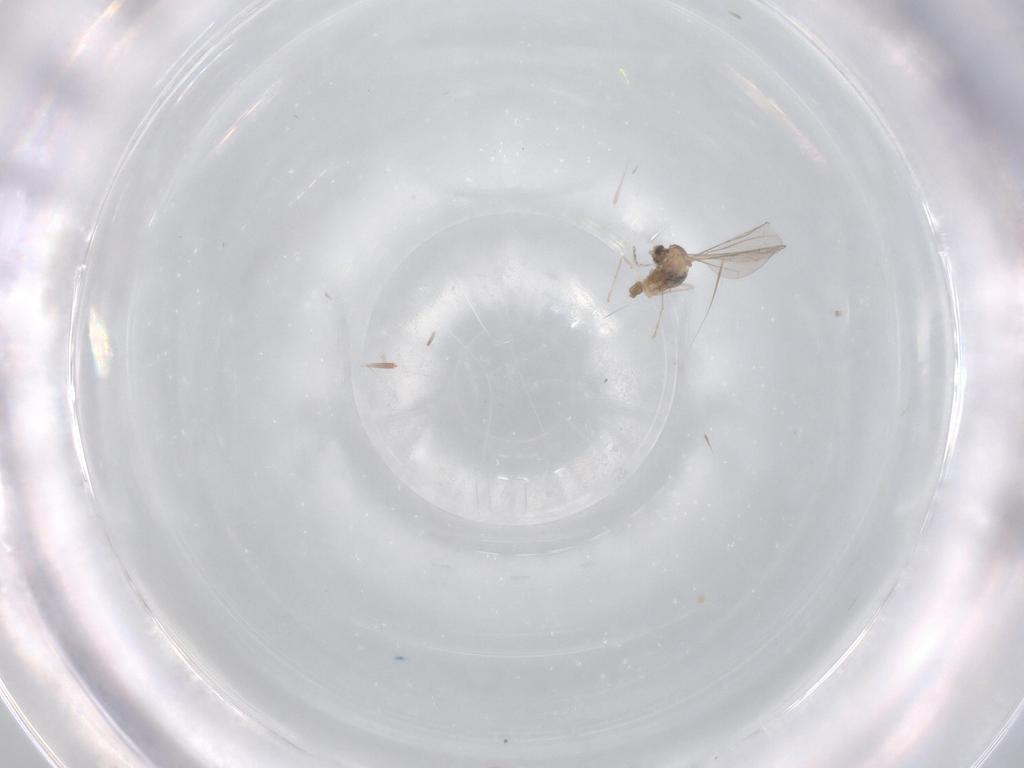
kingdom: Animalia
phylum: Arthropoda
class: Insecta
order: Diptera
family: Cecidomyiidae
